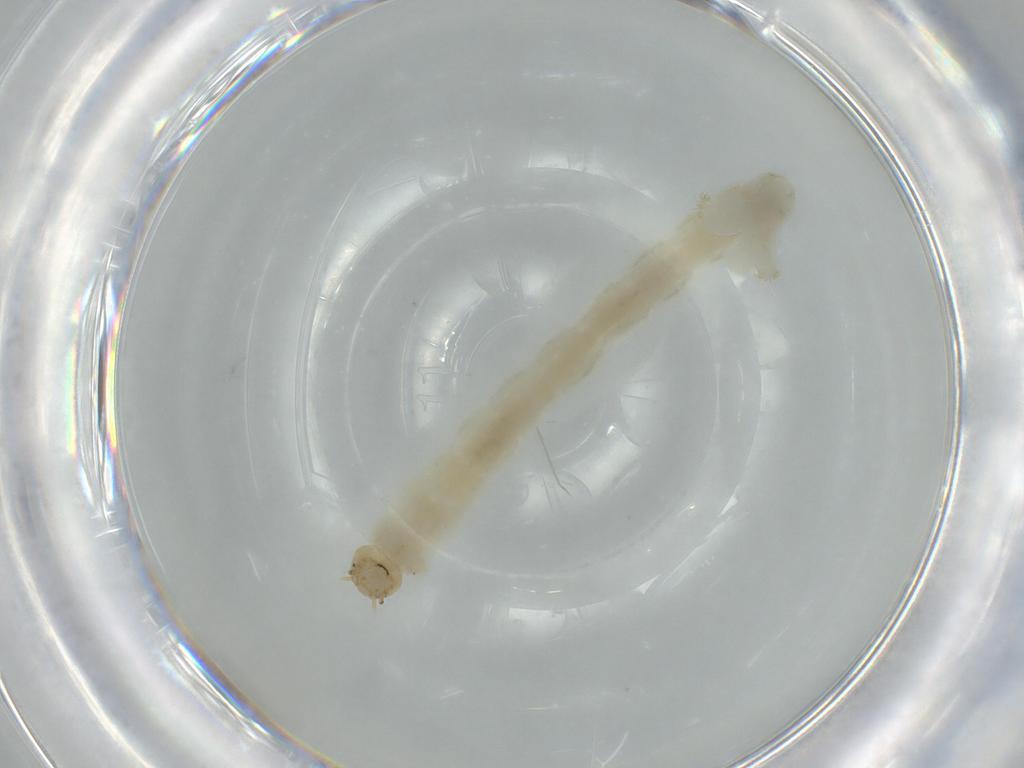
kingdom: Animalia
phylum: Arthropoda
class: Insecta
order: Diptera
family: Chironomidae
